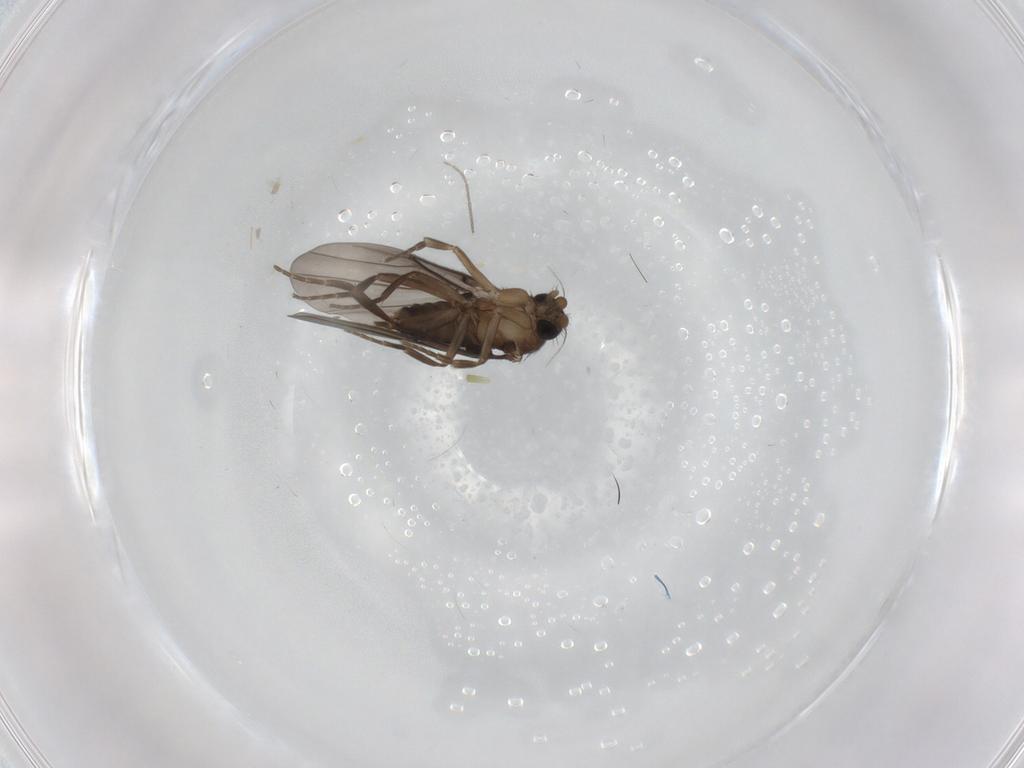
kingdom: Animalia
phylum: Arthropoda
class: Insecta
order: Diptera
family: Phoridae
